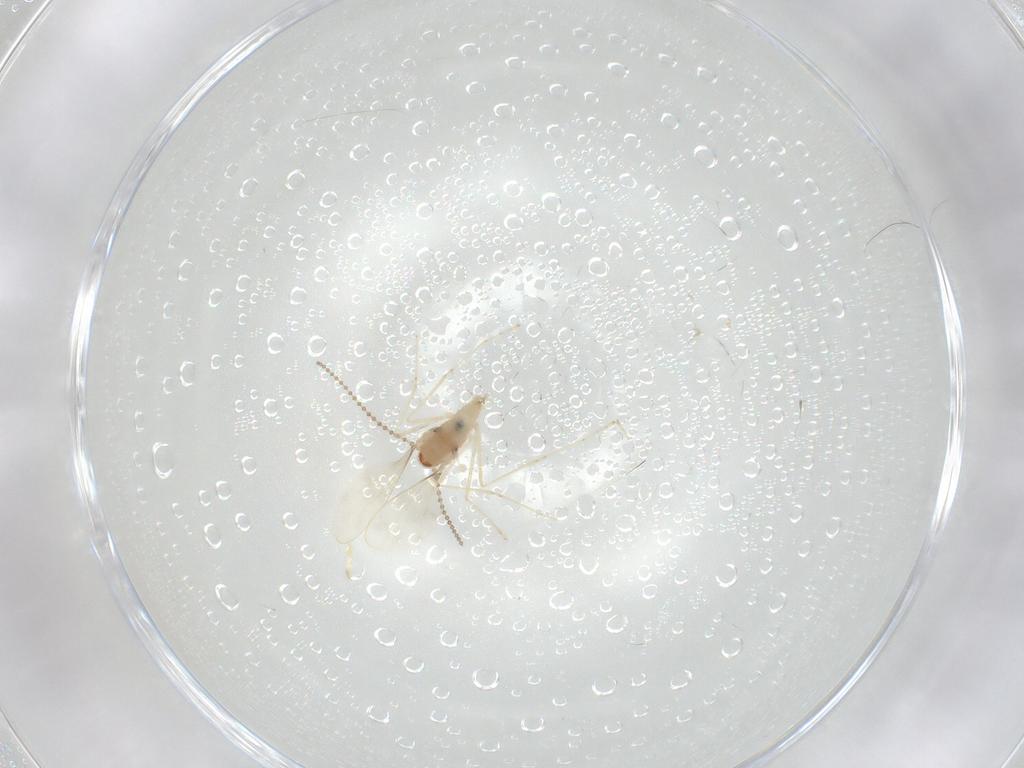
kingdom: Animalia
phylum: Arthropoda
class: Insecta
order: Diptera
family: Cecidomyiidae
